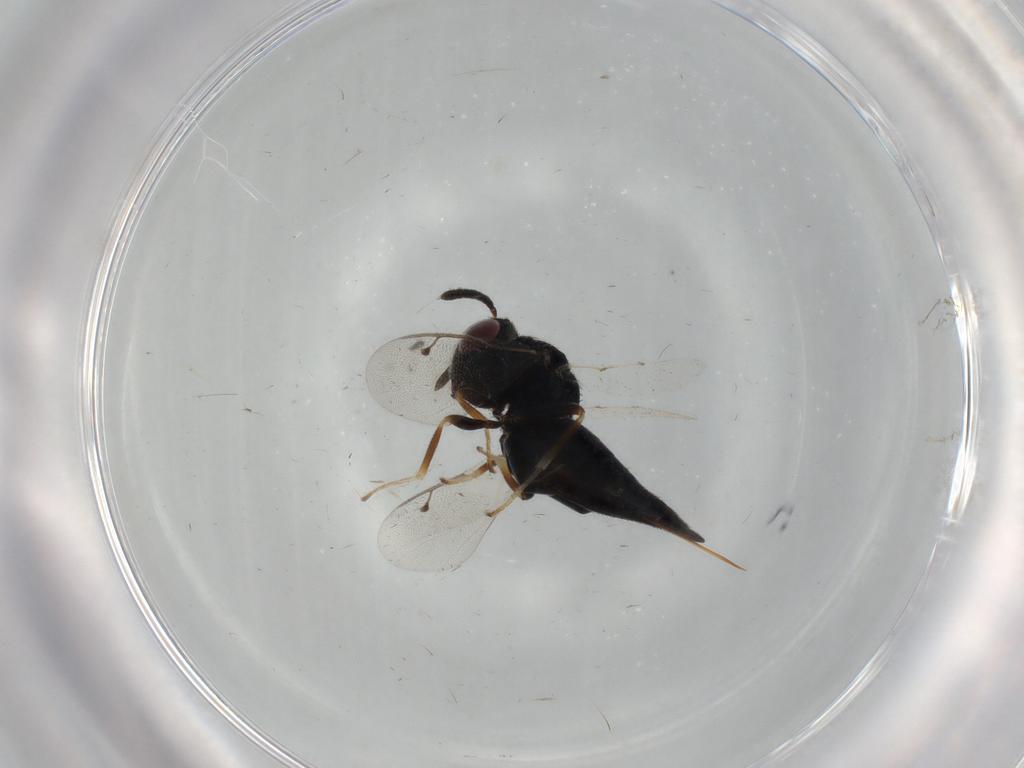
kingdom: Animalia
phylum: Arthropoda
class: Insecta
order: Hymenoptera
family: Pteromalidae
